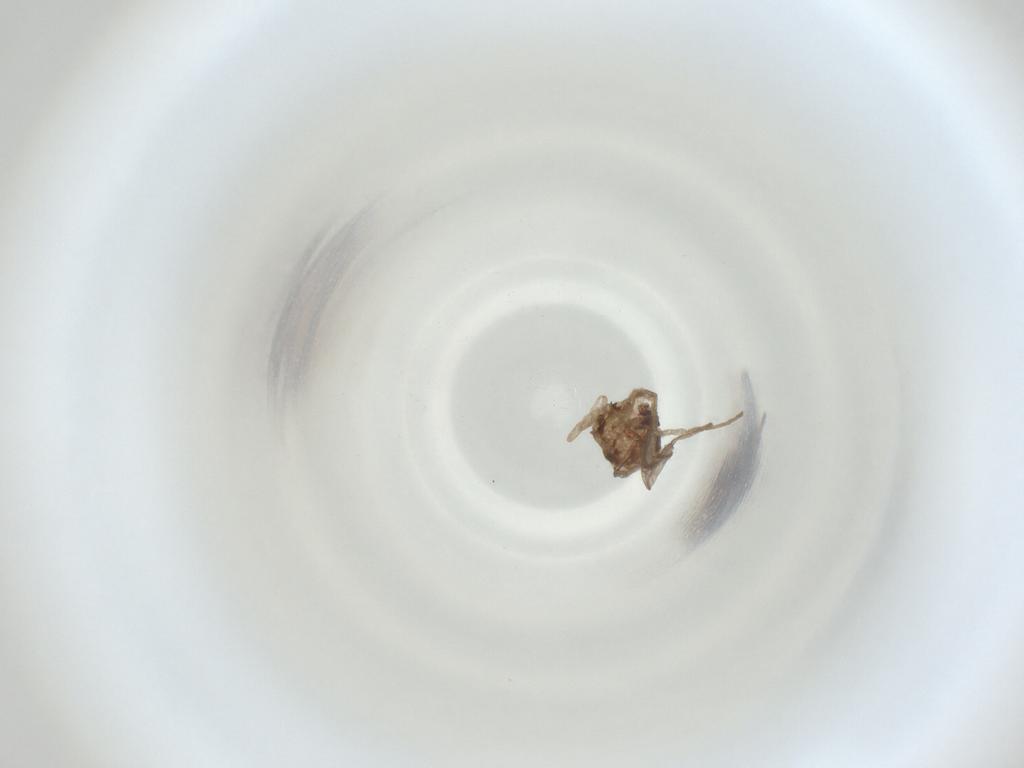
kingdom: Animalia
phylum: Arthropoda
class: Insecta
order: Diptera
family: Cecidomyiidae
